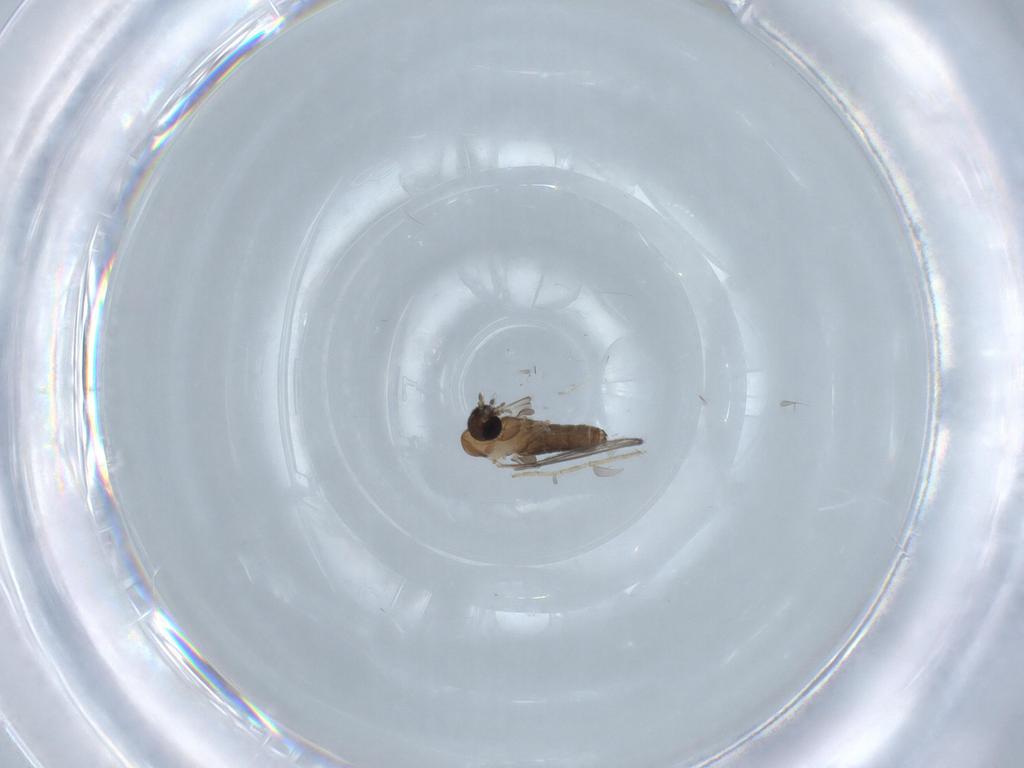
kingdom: Animalia
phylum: Arthropoda
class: Insecta
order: Diptera
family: Psychodidae
